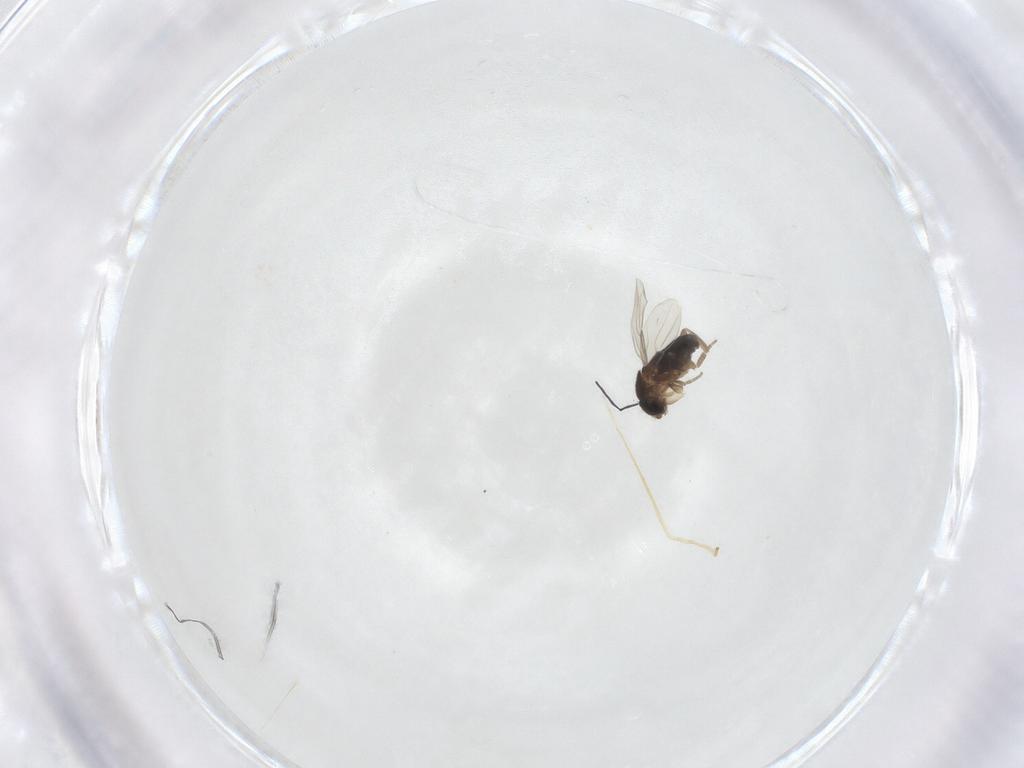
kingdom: Animalia
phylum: Arthropoda
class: Insecta
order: Diptera
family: Phoridae
